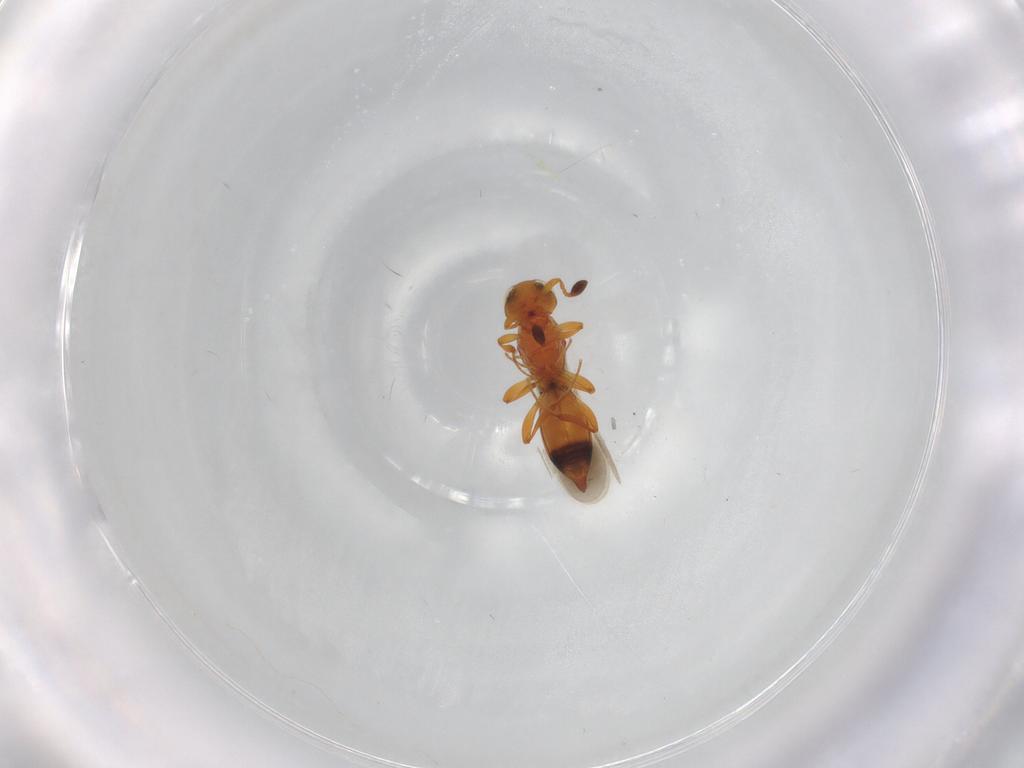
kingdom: Animalia
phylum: Arthropoda
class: Insecta
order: Hymenoptera
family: Platygastridae
